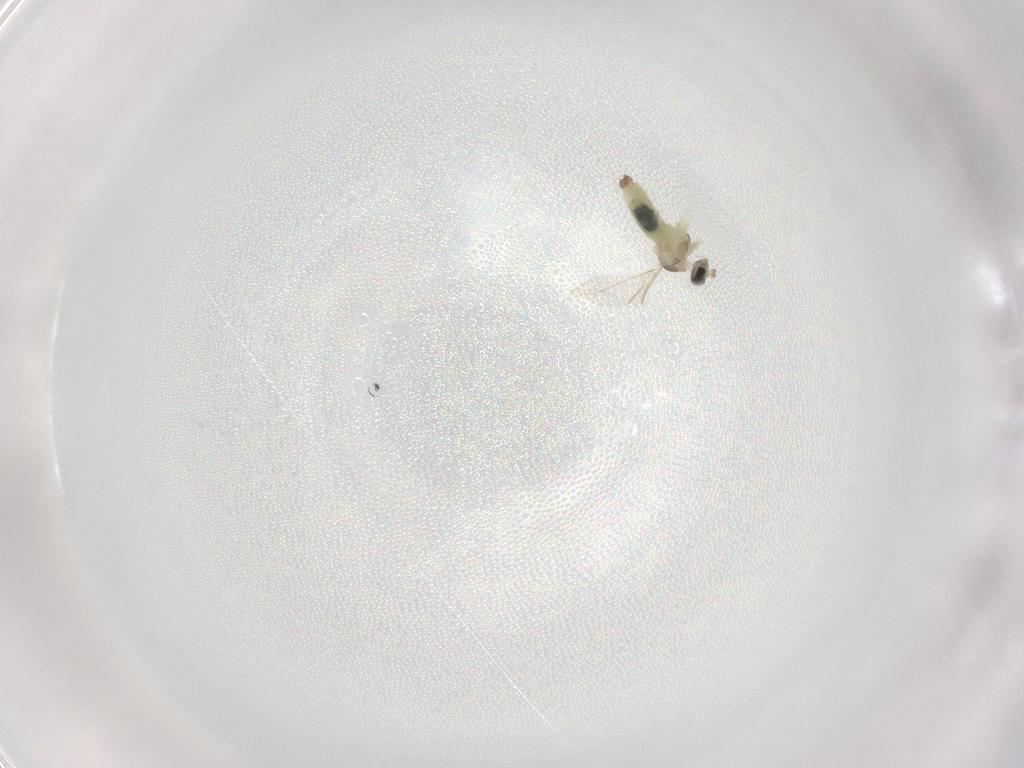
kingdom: Animalia
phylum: Arthropoda
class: Insecta
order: Diptera
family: Cecidomyiidae
